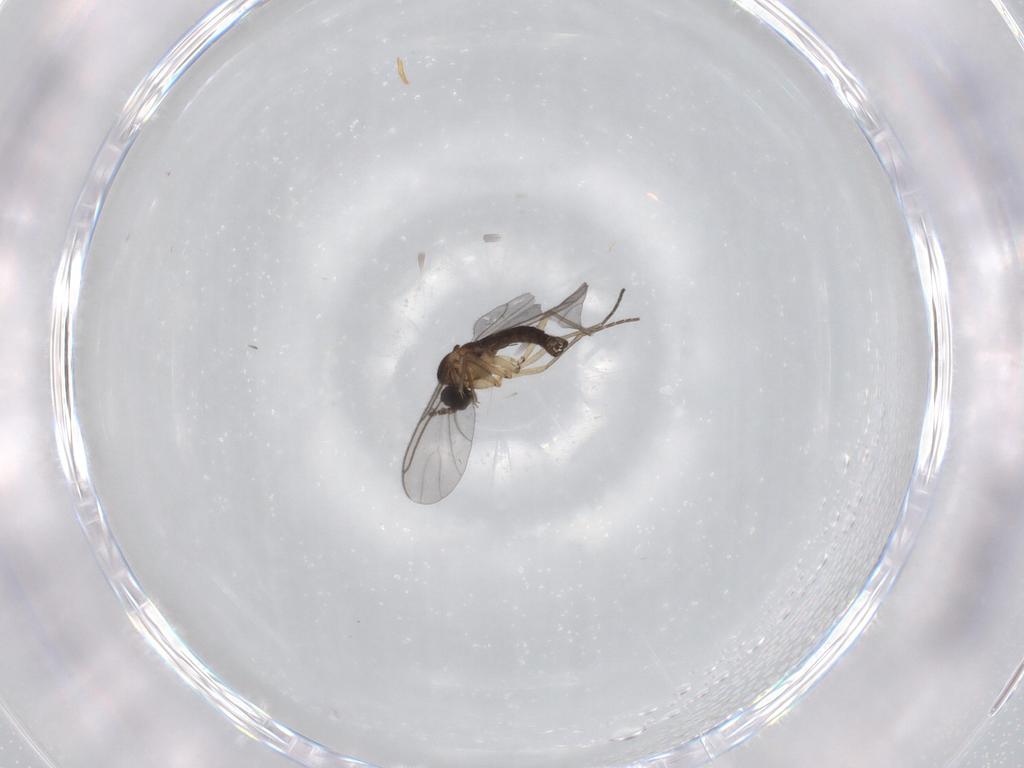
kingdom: Animalia
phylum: Arthropoda
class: Insecta
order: Diptera
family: Sciaridae
